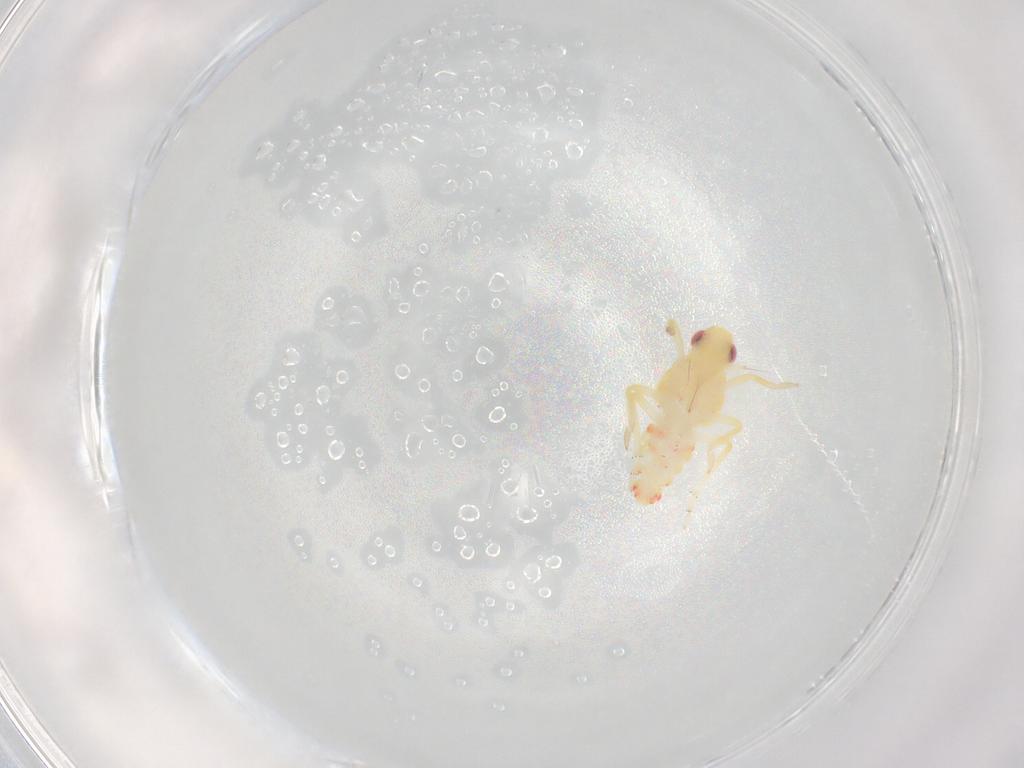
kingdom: Animalia
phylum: Arthropoda
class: Insecta
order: Hemiptera
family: Tropiduchidae
